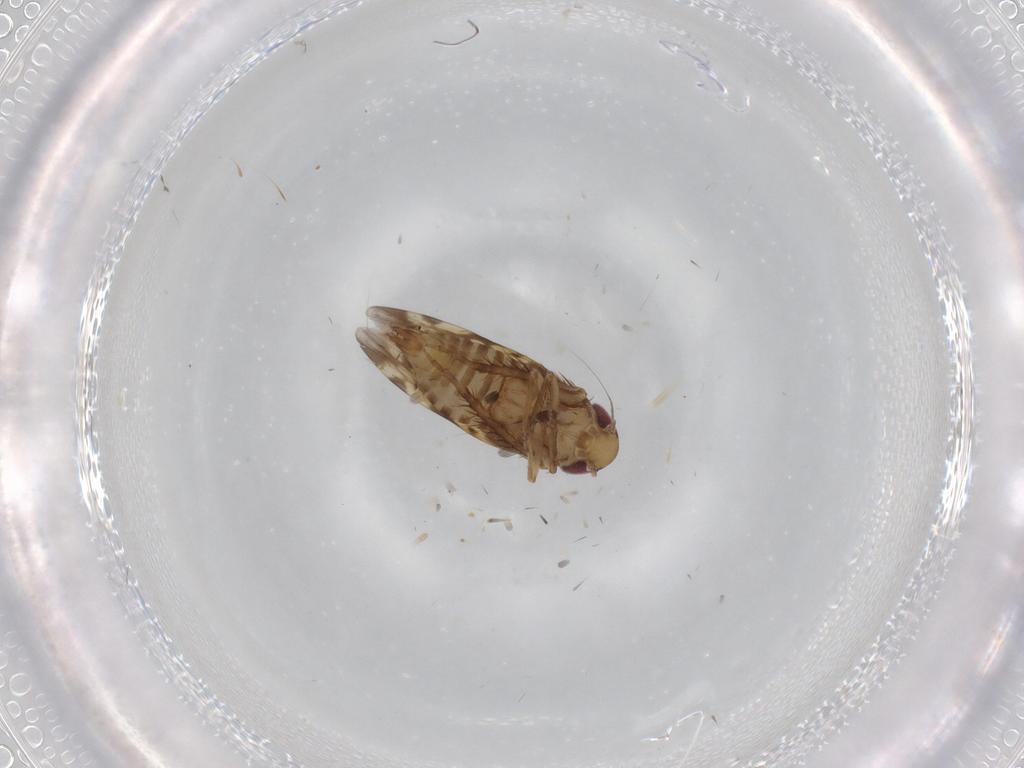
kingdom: Animalia
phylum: Arthropoda
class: Insecta
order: Hemiptera
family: Cicadellidae
